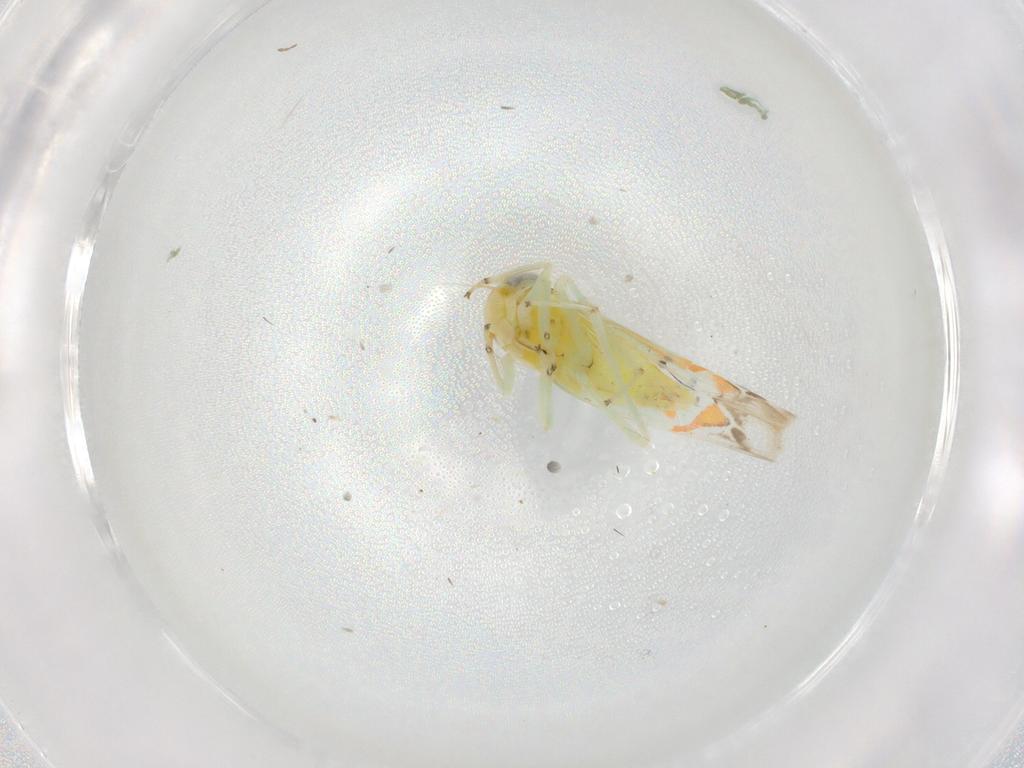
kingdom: Animalia
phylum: Arthropoda
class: Insecta
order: Hemiptera
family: Cicadellidae
